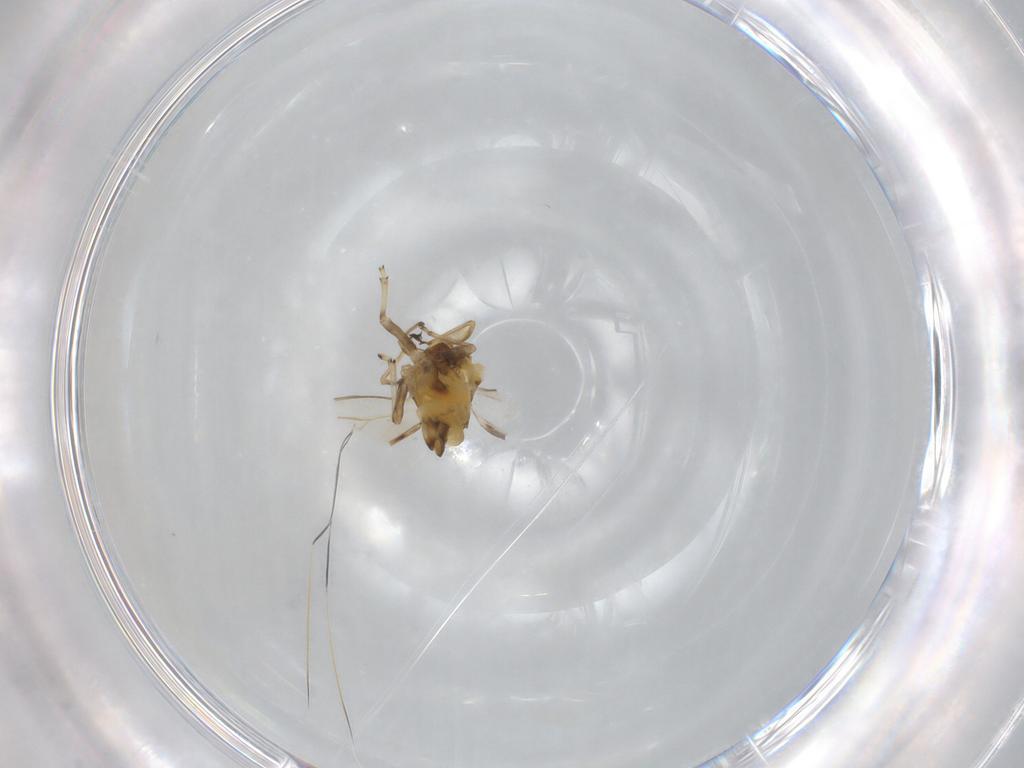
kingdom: Animalia
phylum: Arthropoda
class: Insecta
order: Hemiptera
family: Psyllidae
